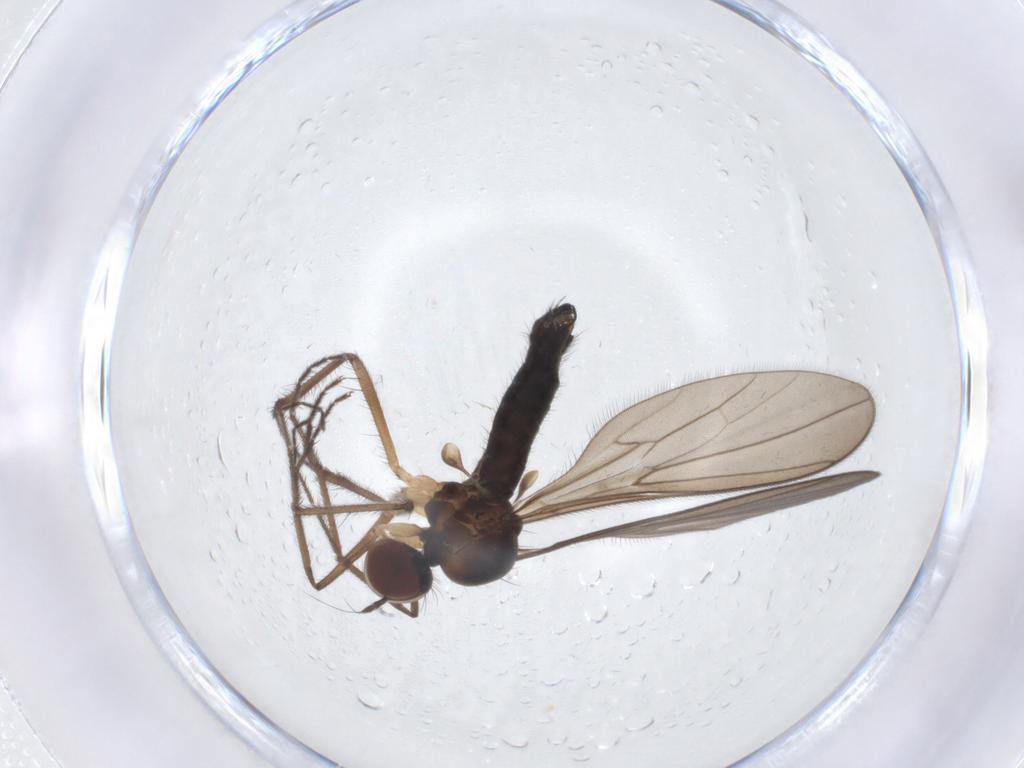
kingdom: Animalia
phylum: Arthropoda
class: Insecta
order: Diptera
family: Hybotidae
